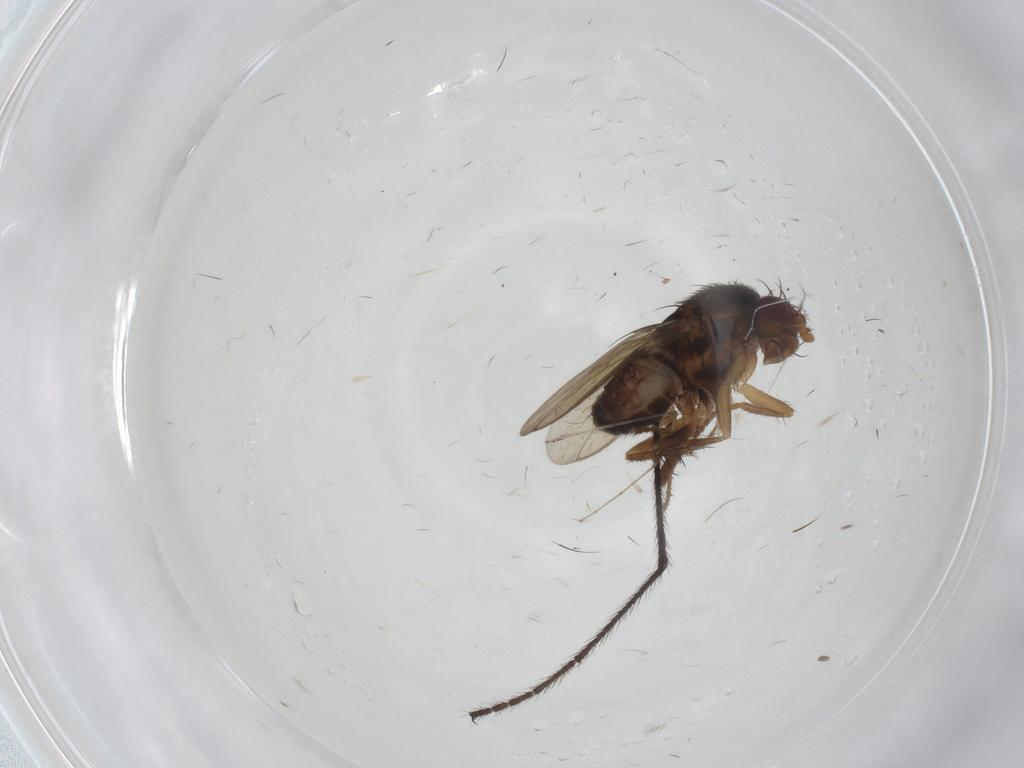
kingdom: Animalia
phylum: Arthropoda
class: Insecta
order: Diptera
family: Sphaeroceridae
